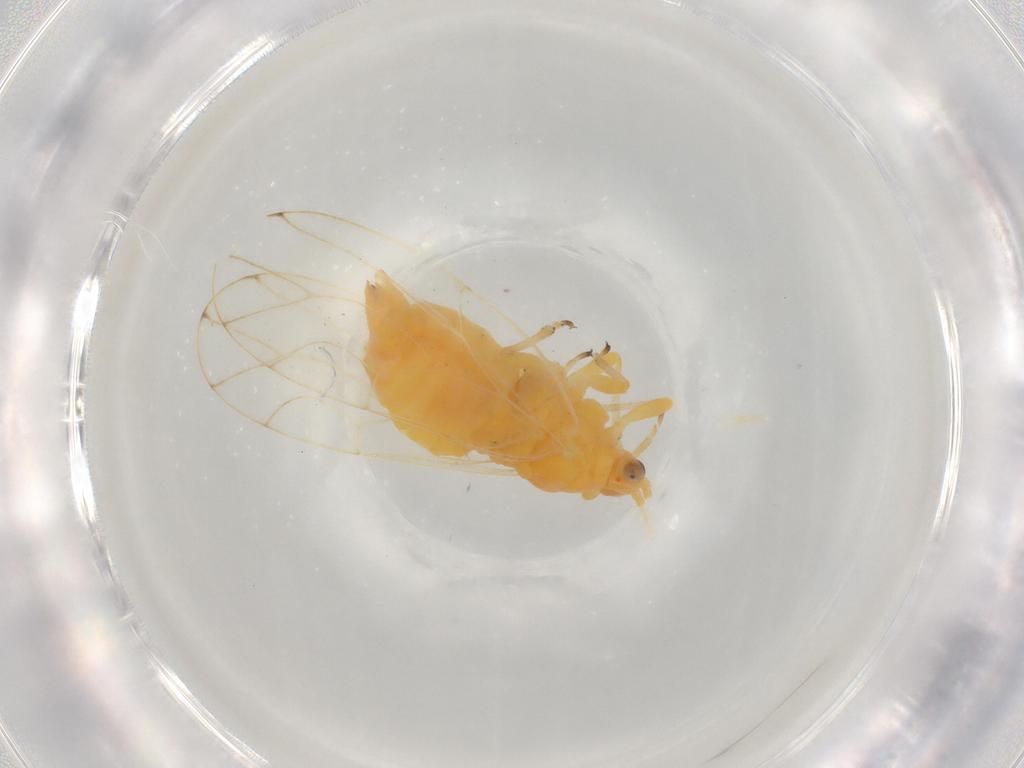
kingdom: Animalia
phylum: Arthropoda
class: Insecta
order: Hemiptera
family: Aphalaridae
